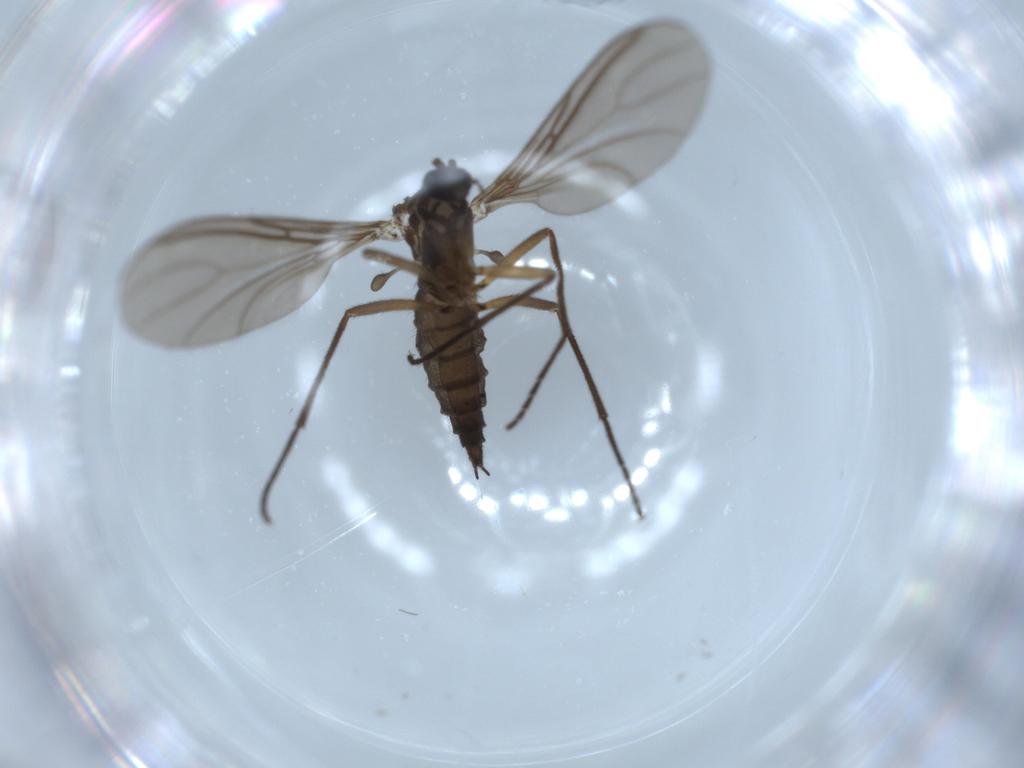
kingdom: Animalia
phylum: Arthropoda
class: Insecta
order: Diptera
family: Sciaridae
